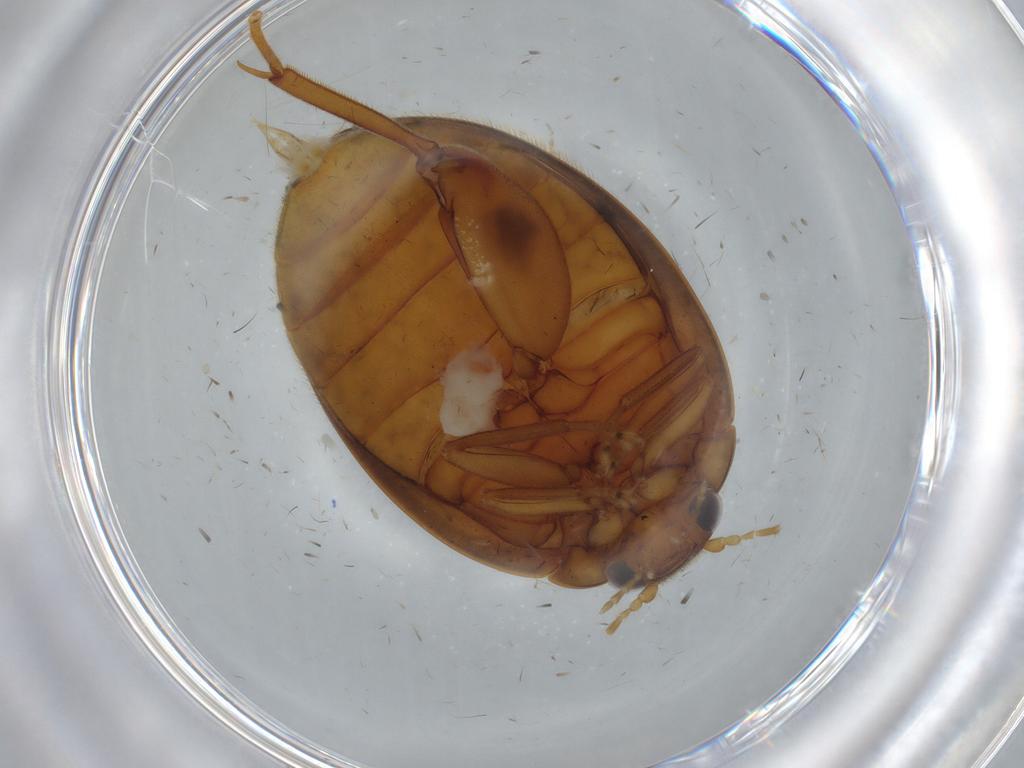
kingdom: Animalia
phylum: Arthropoda
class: Insecta
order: Coleoptera
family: Scirtidae
